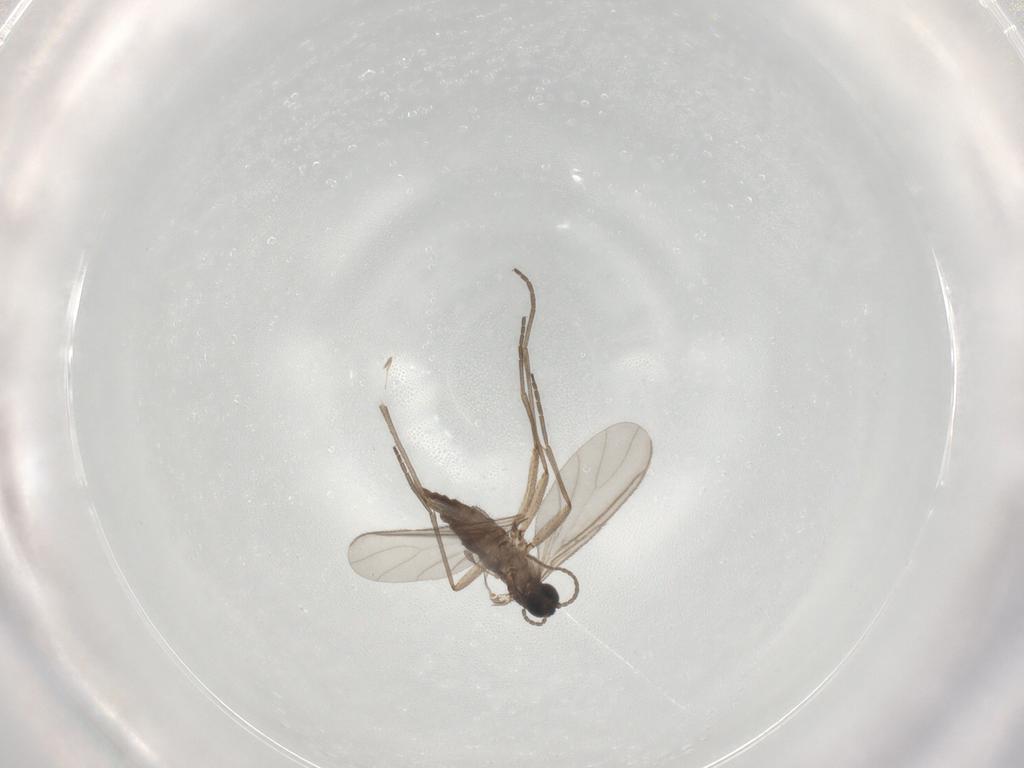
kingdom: Animalia
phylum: Arthropoda
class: Insecta
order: Diptera
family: Sciaridae
